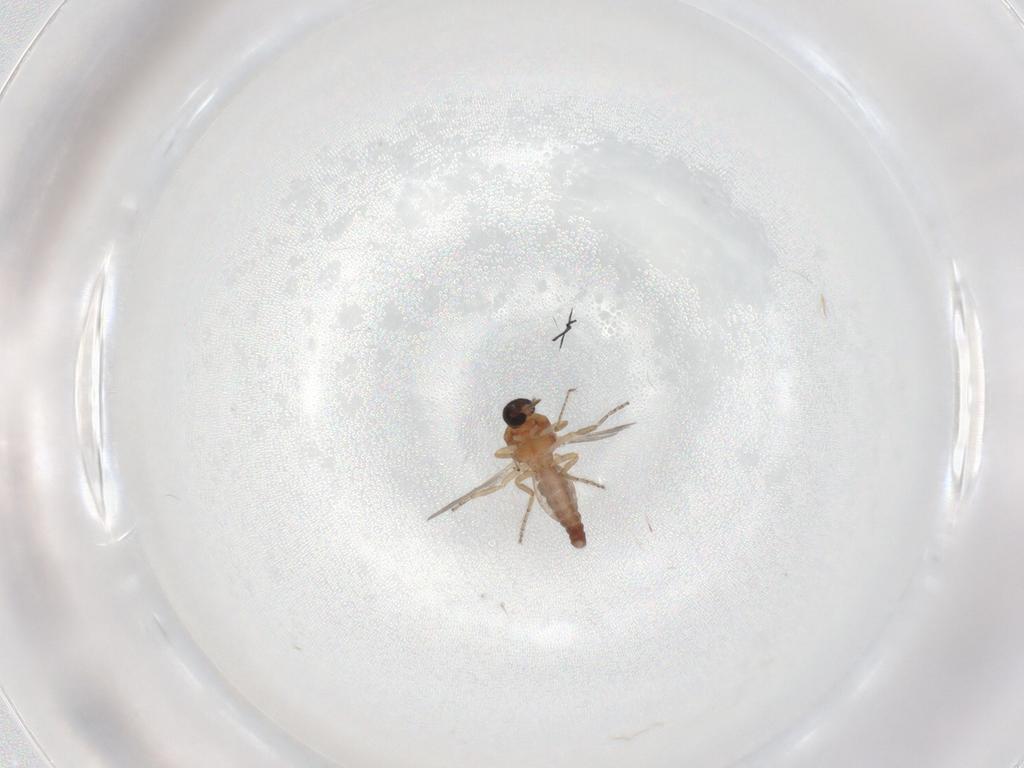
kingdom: Animalia
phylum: Arthropoda
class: Insecta
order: Diptera
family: Ceratopogonidae
